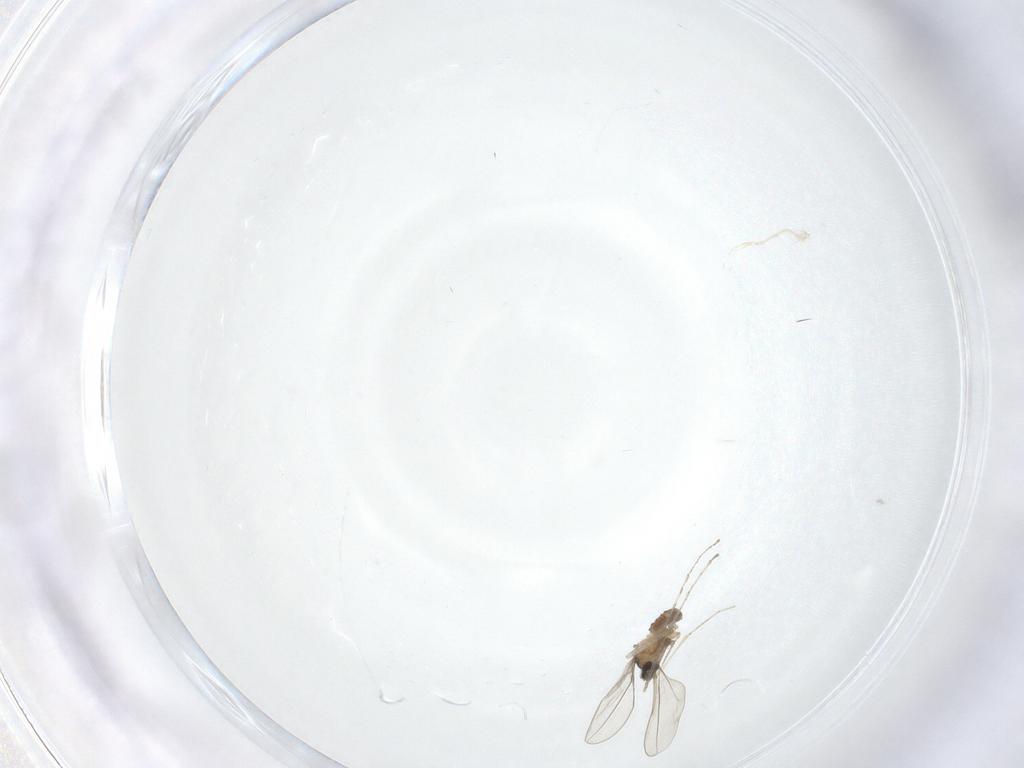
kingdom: Animalia
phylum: Arthropoda
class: Insecta
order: Diptera
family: Cecidomyiidae
